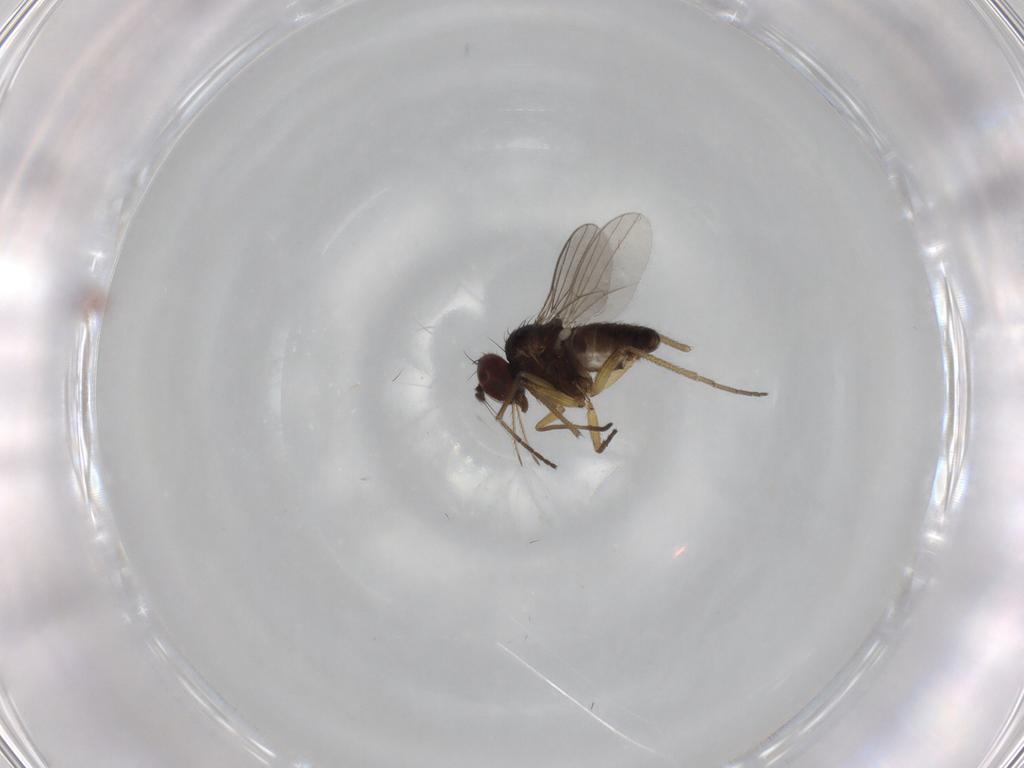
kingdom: Animalia
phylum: Arthropoda
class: Insecta
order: Diptera
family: Dolichopodidae
